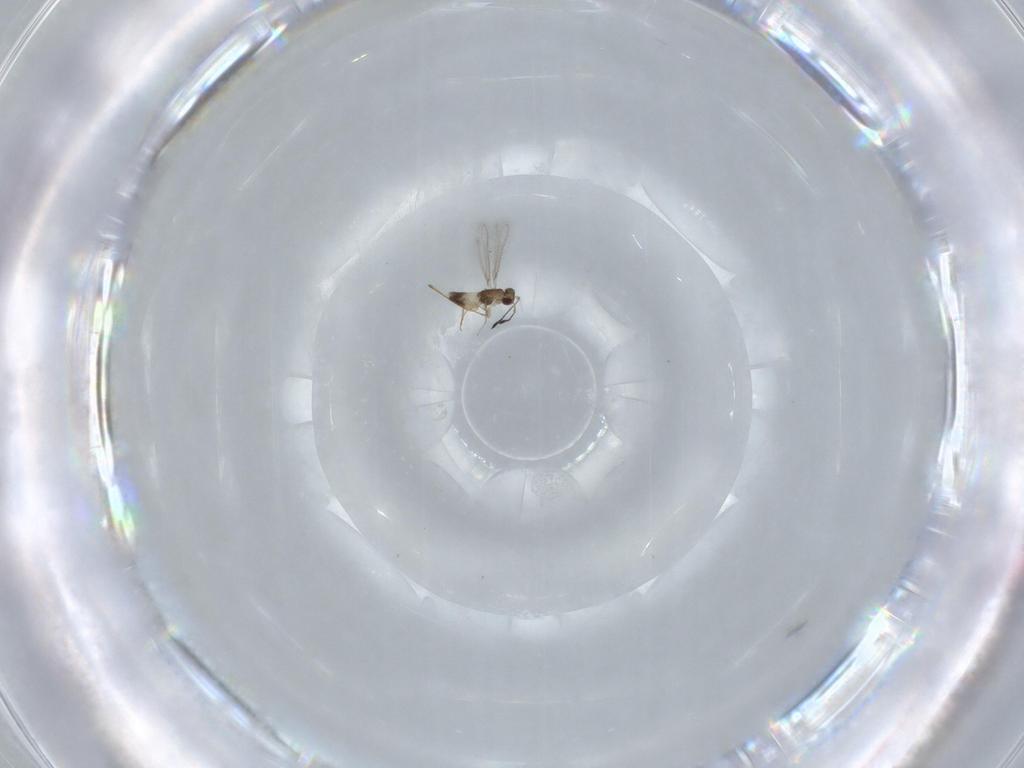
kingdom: Animalia
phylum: Arthropoda
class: Insecta
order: Hymenoptera
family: Mymaridae
